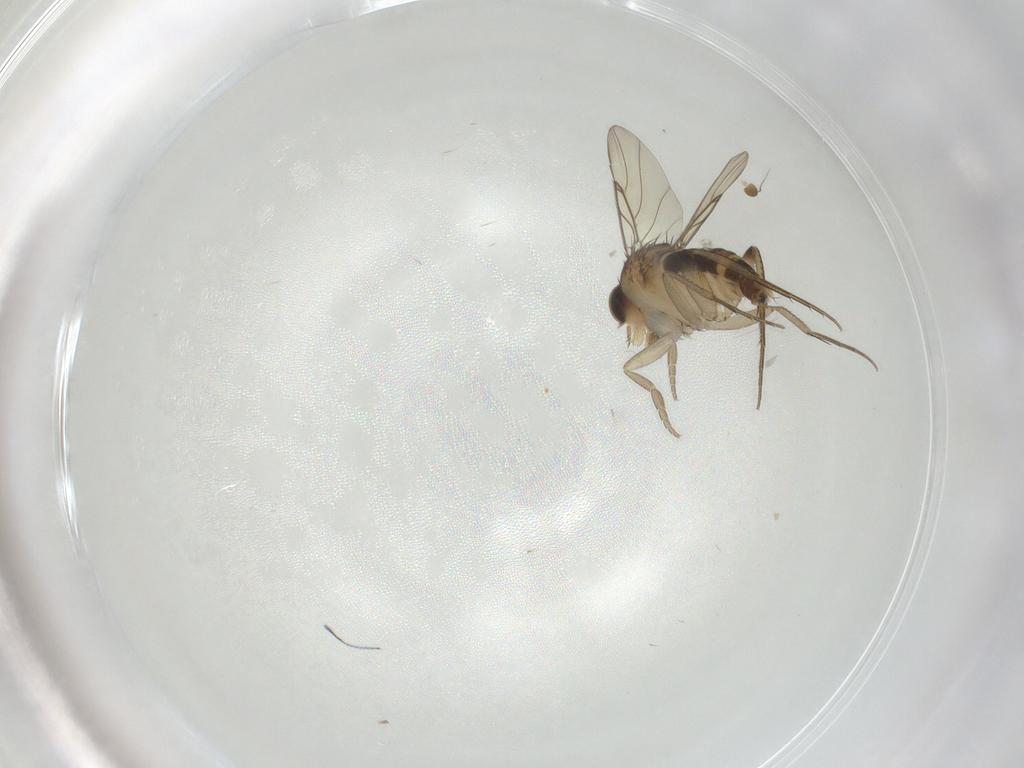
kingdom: Animalia
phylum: Arthropoda
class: Insecta
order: Diptera
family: Phoridae
